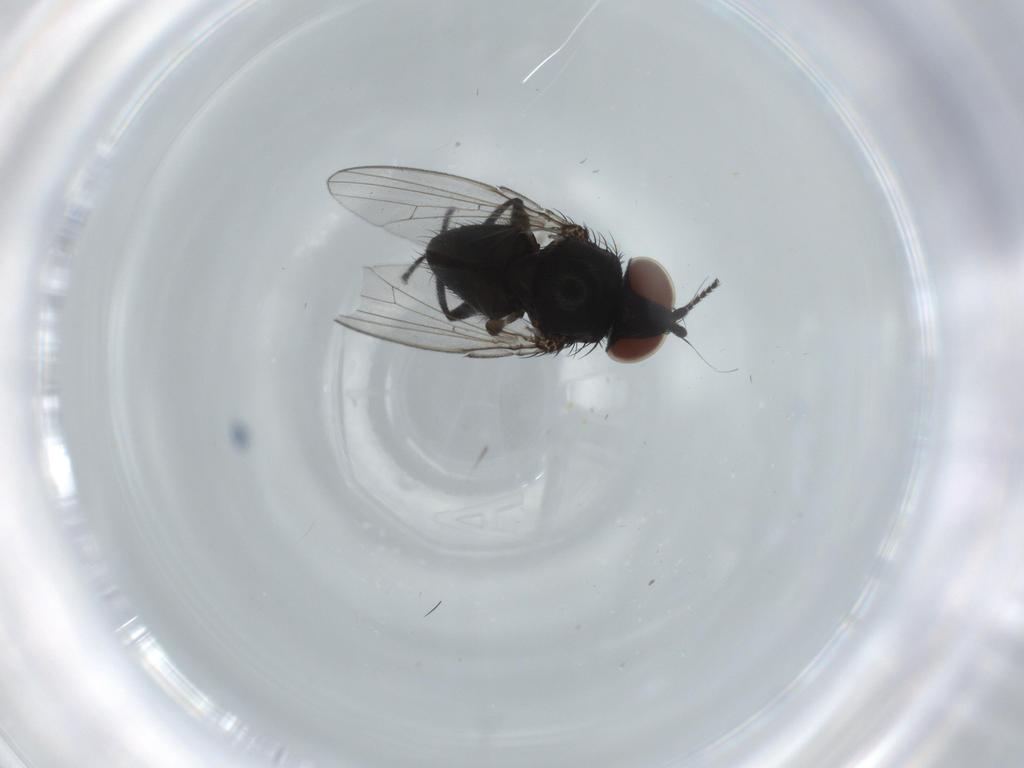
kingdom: Animalia
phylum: Arthropoda
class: Insecta
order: Diptera
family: Milichiidae
